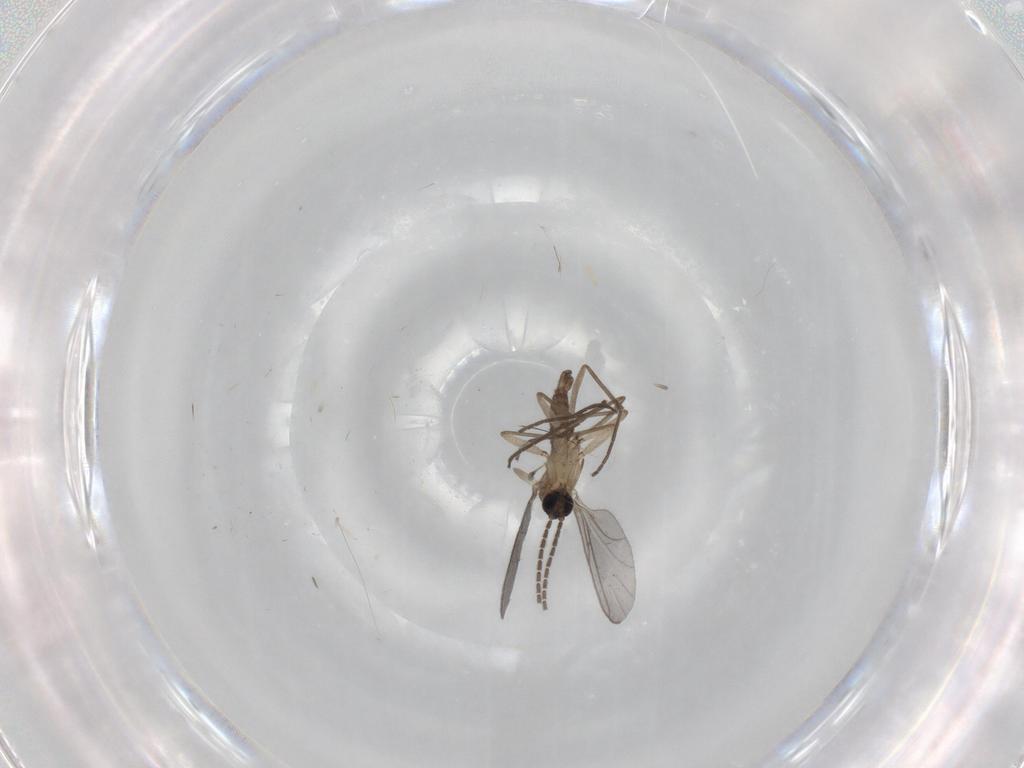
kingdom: Animalia
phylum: Arthropoda
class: Insecta
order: Diptera
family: Sciaridae
